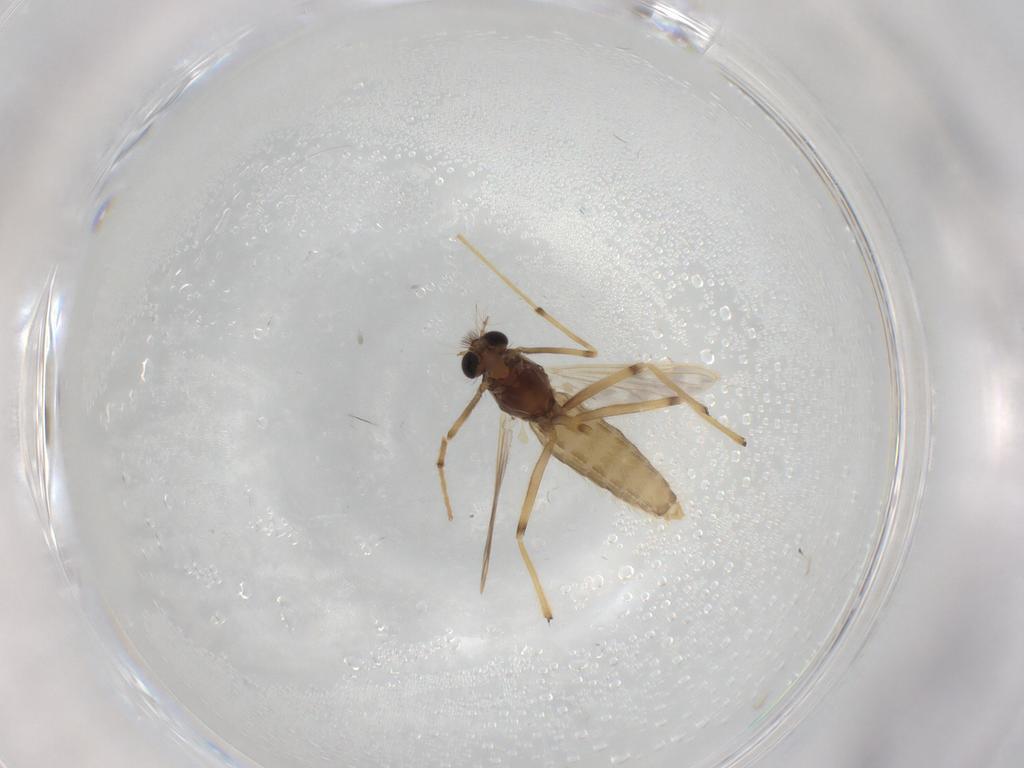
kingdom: Animalia
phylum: Arthropoda
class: Insecta
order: Diptera
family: Chironomidae
